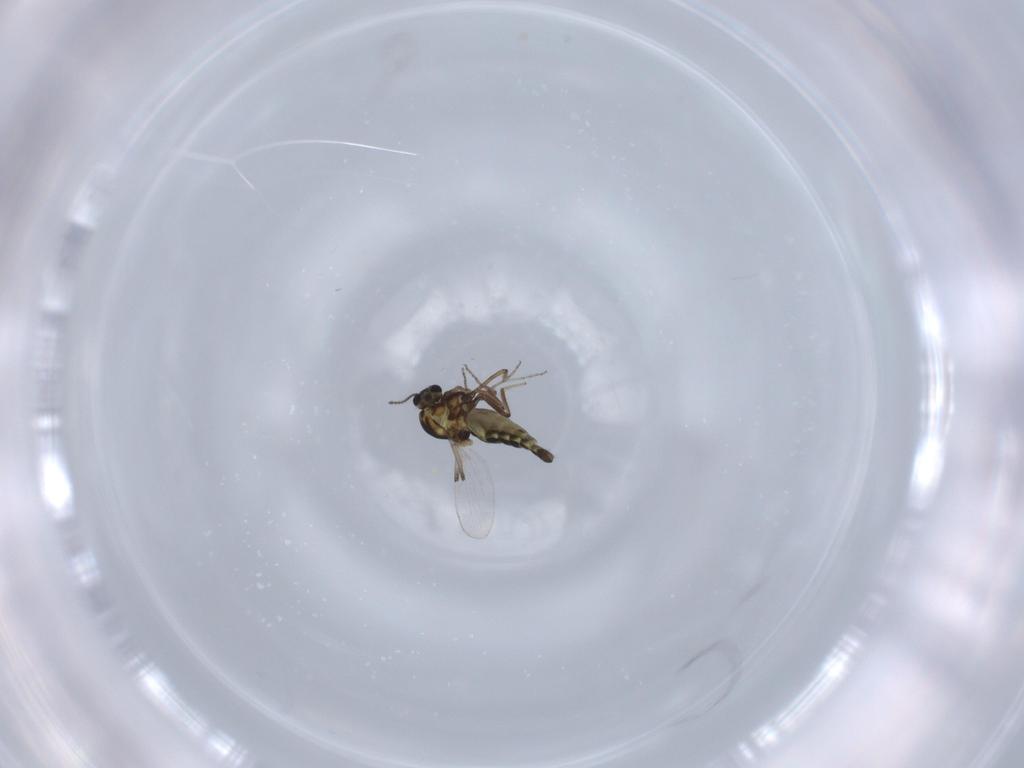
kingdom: Animalia
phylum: Arthropoda
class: Insecta
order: Diptera
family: Ceratopogonidae
